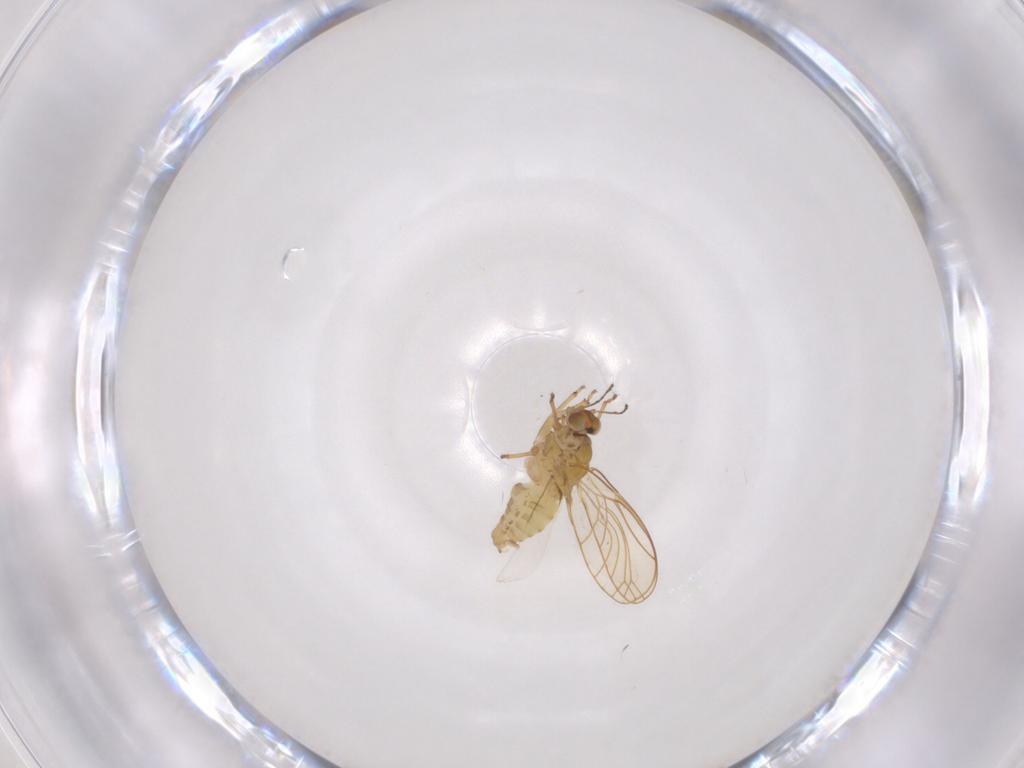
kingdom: Animalia
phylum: Arthropoda
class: Insecta
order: Hemiptera
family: Psylloidea_incertae_sedis
